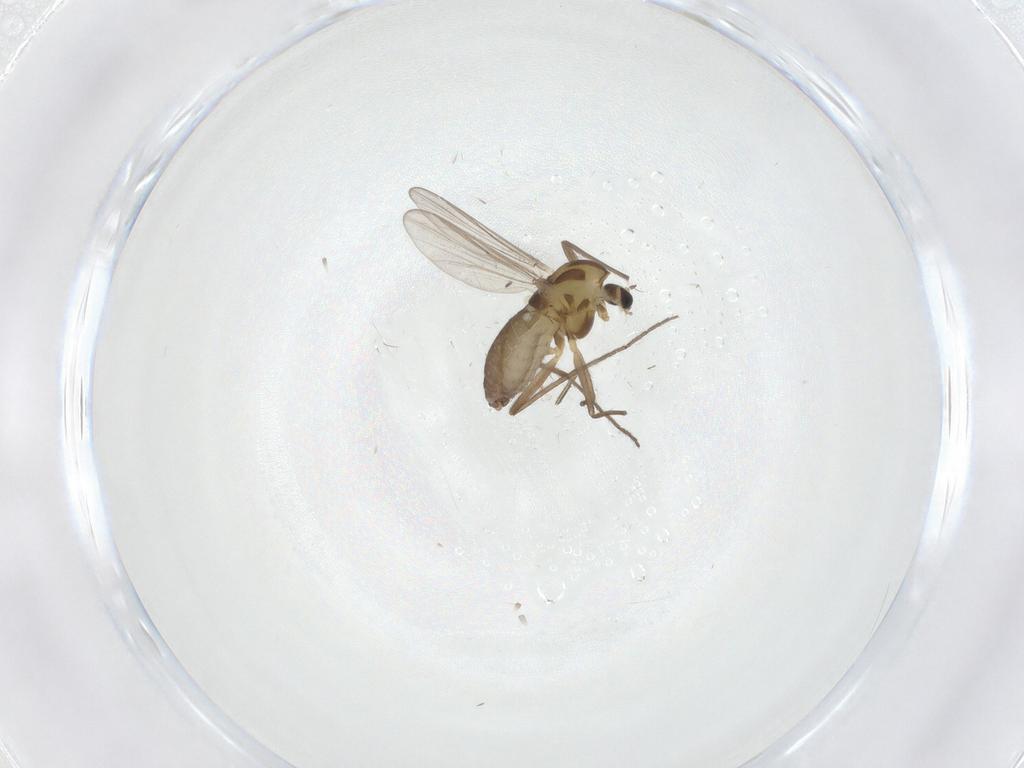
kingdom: Animalia
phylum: Arthropoda
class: Insecta
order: Diptera
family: Chironomidae
